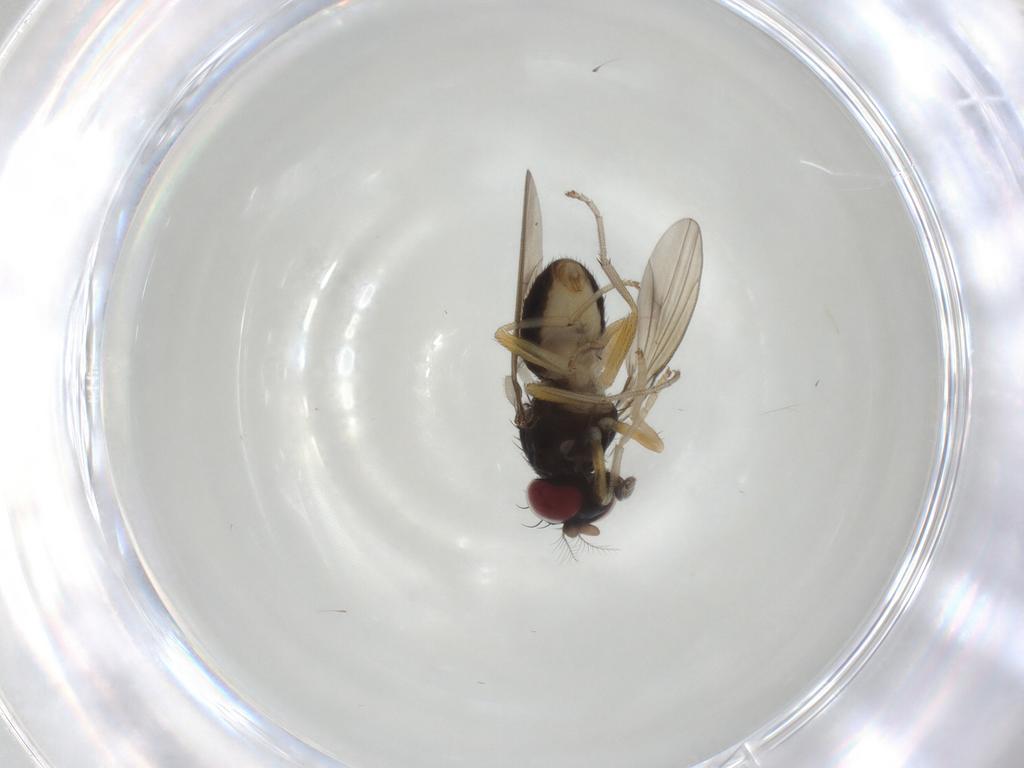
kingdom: Animalia
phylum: Arthropoda
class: Insecta
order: Diptera
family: Lauxaniidae
